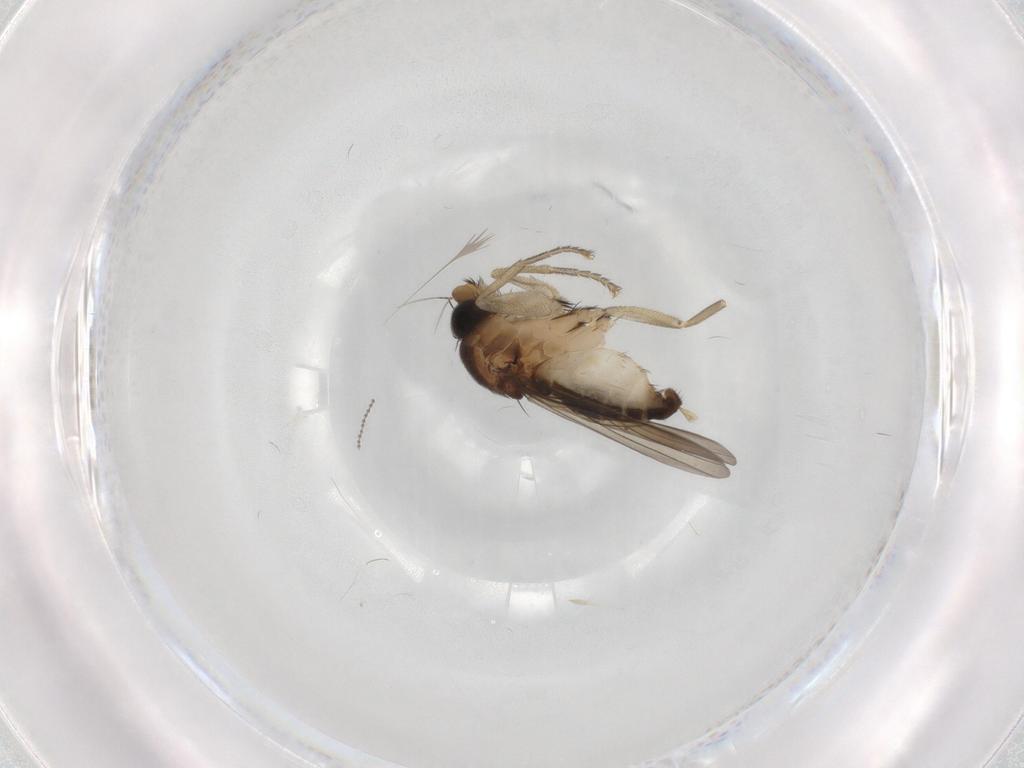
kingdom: Animalia
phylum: Arthropoda
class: Insecta
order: Diptera
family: Phoridae
